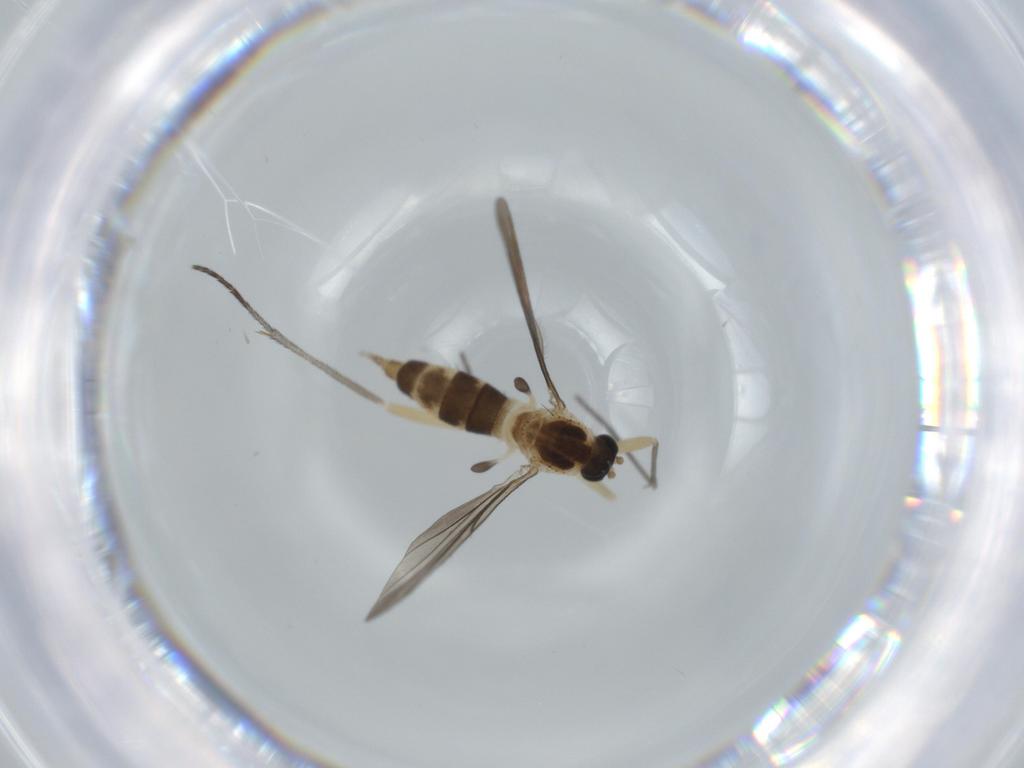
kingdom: Animalia
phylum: Arthropoda
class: Insecta
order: Diptera
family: Sciaridae
